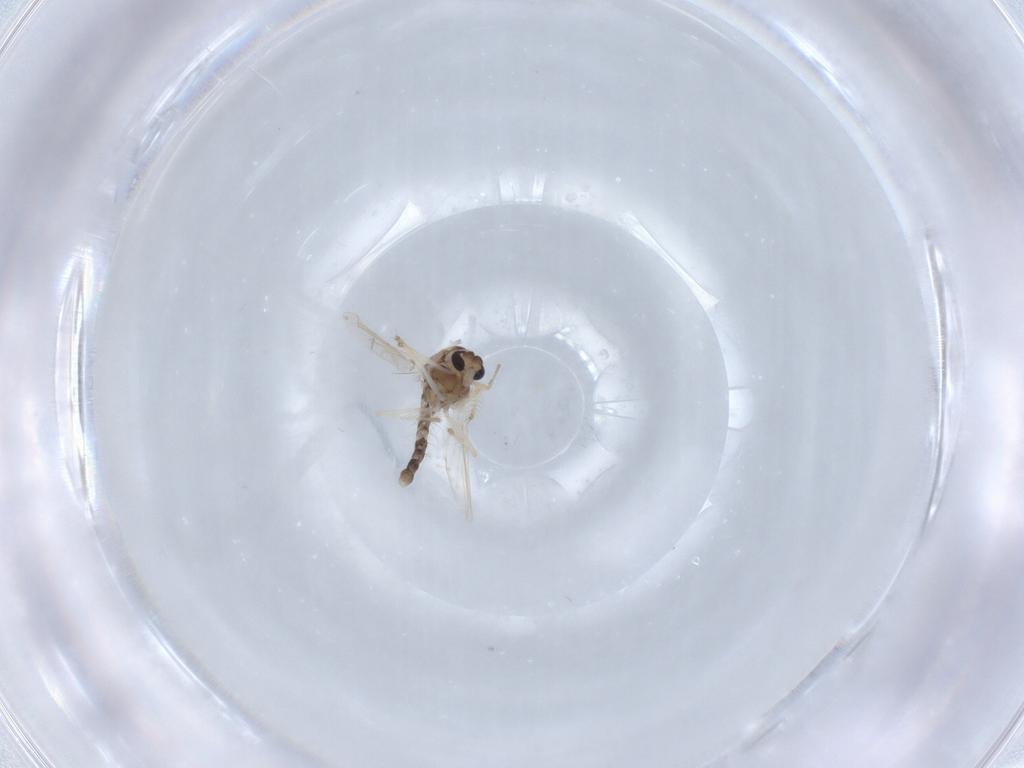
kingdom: Animalia
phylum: Arthropoda
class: Insecta
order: Diptera
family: Chironomidae
